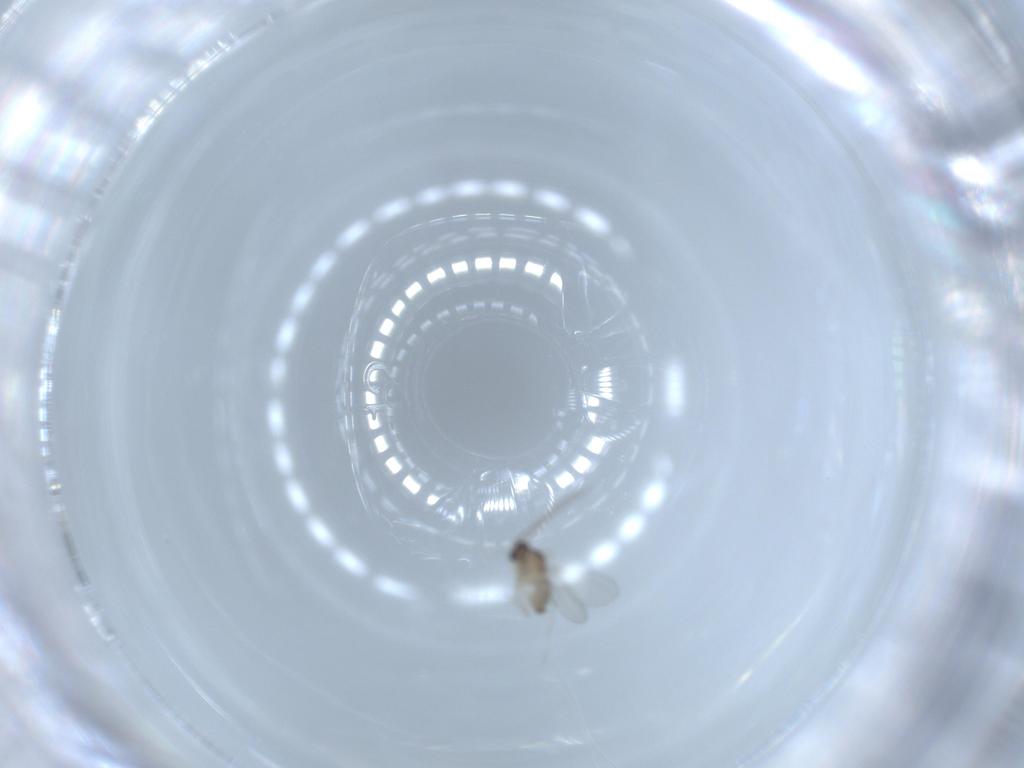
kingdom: Animalia
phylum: Arthropoda
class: Insecta
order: Diptera
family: Cecidomyiidae
